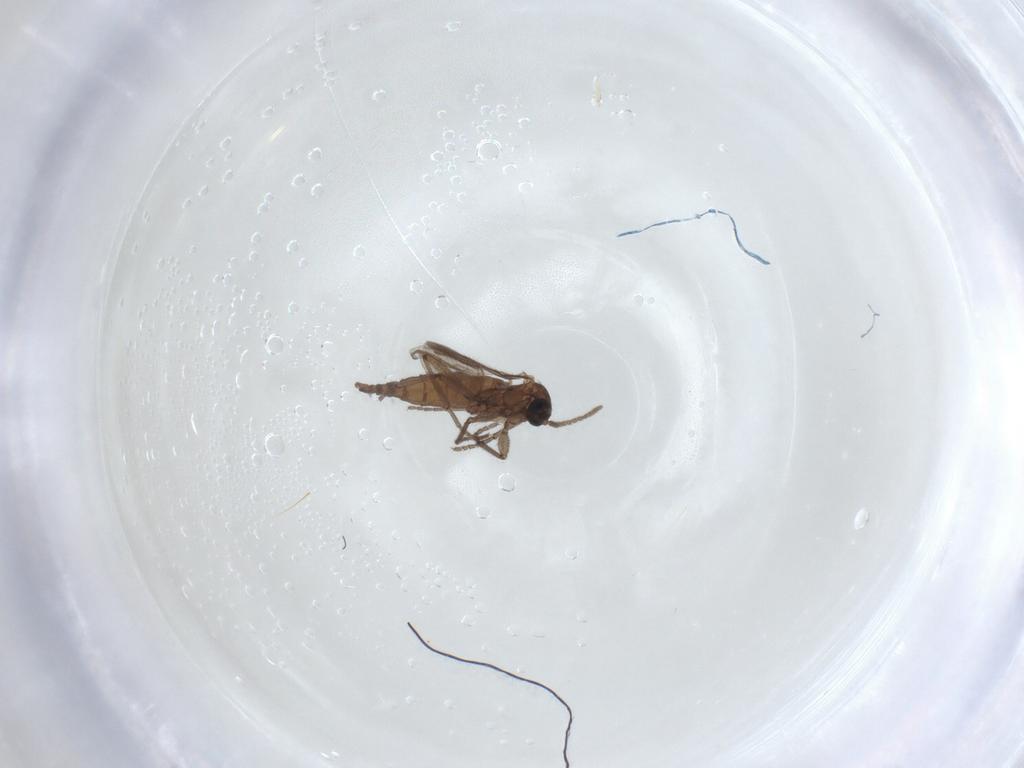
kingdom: Animalia
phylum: Arthropoda
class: Insecta
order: Diptera
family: Sciaridae
